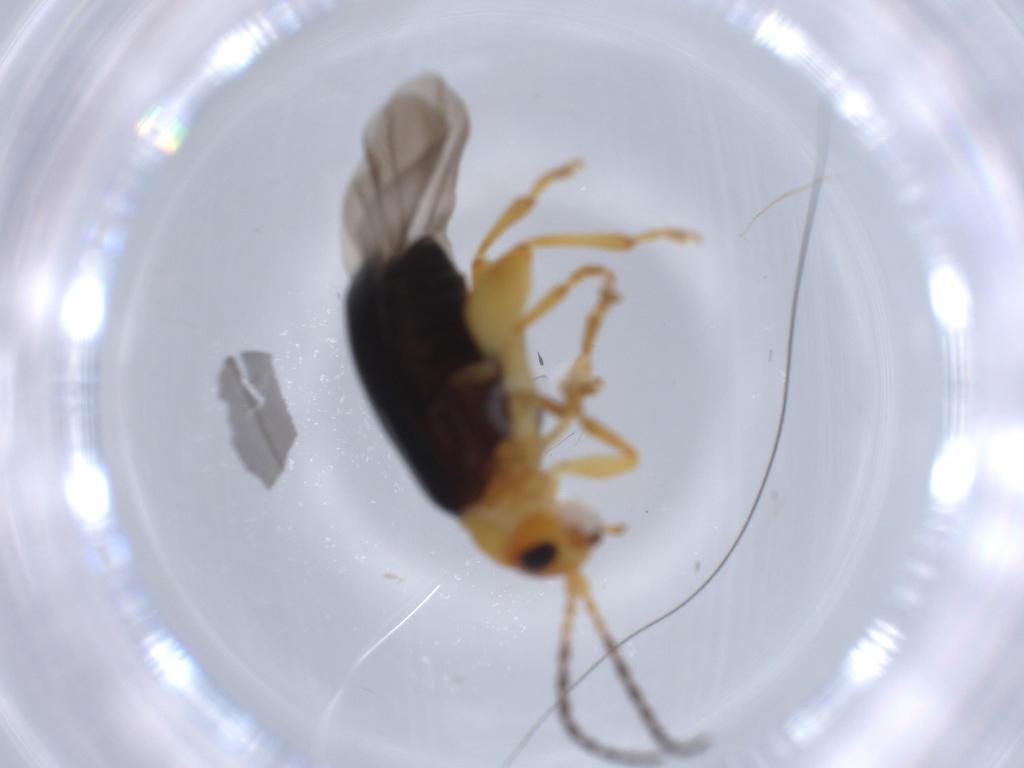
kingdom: Animalia
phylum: Arthropoda
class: Insecta
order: Coleoptera
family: Chrysomelidae
